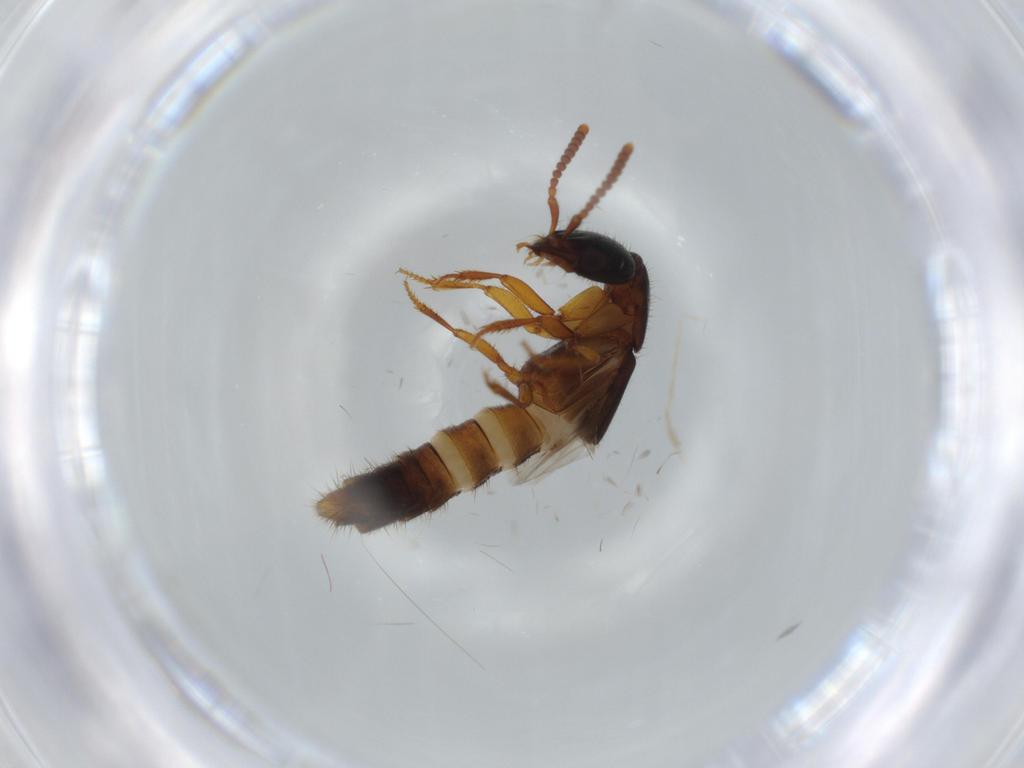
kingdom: Animalia
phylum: Arthropoda
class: Insecta
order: Coleoptera
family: Staphylinidae
